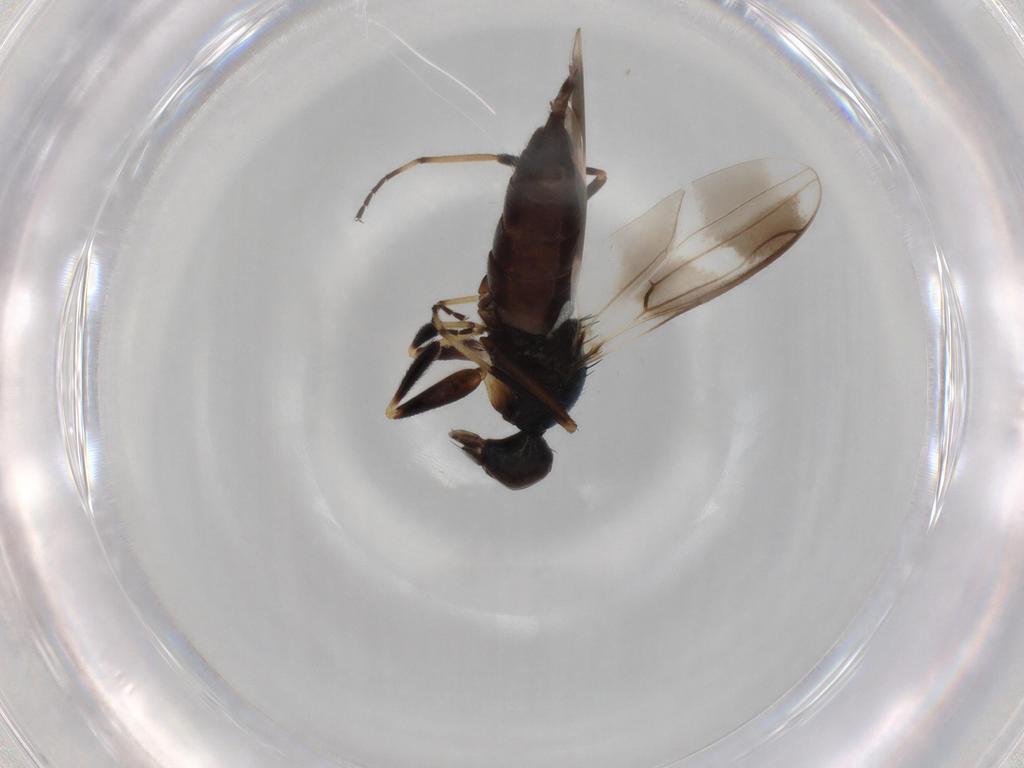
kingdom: Animalia
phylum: Arthropoda
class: Insecta
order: Diptera
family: Hybotidae
